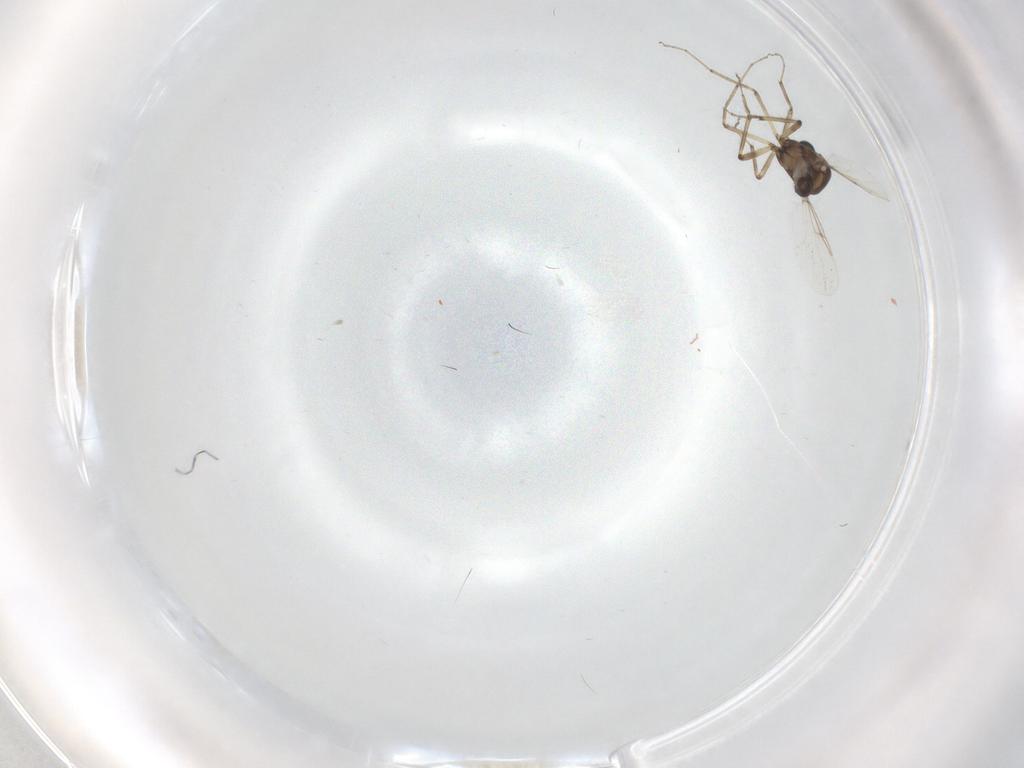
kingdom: Animalia
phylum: Arthropoda
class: Insecta
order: Diptera
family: Ceratopogonidae
